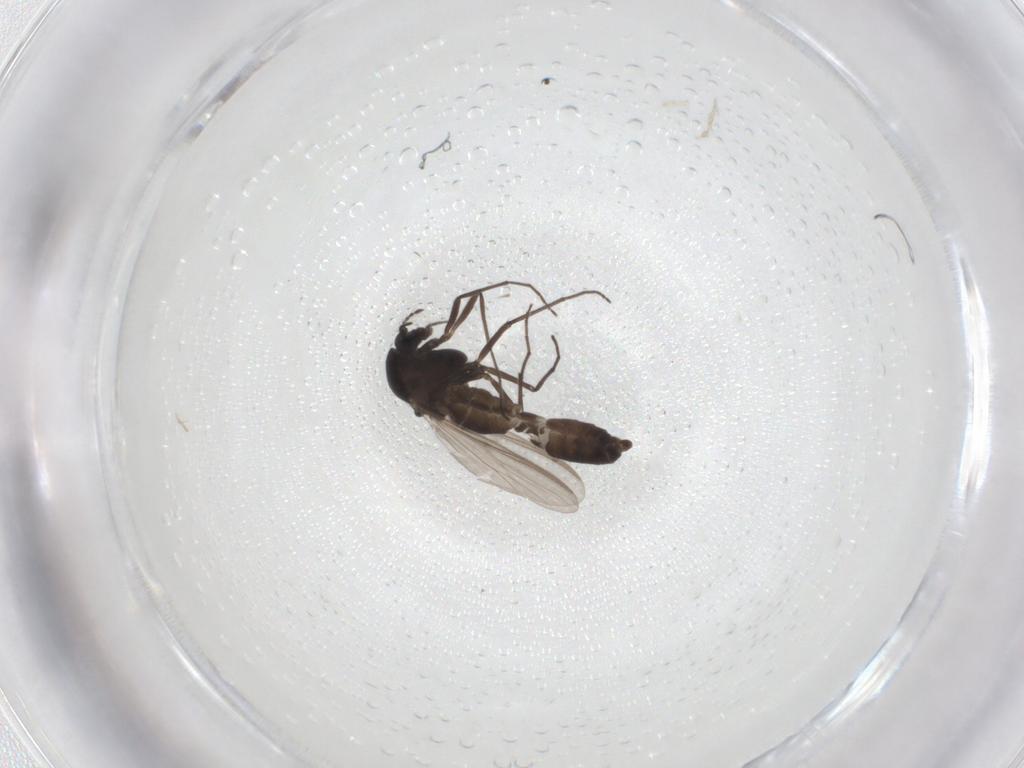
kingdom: Animalia
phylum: Arthropoda
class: Insecta
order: Diptera
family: Chironomidae
